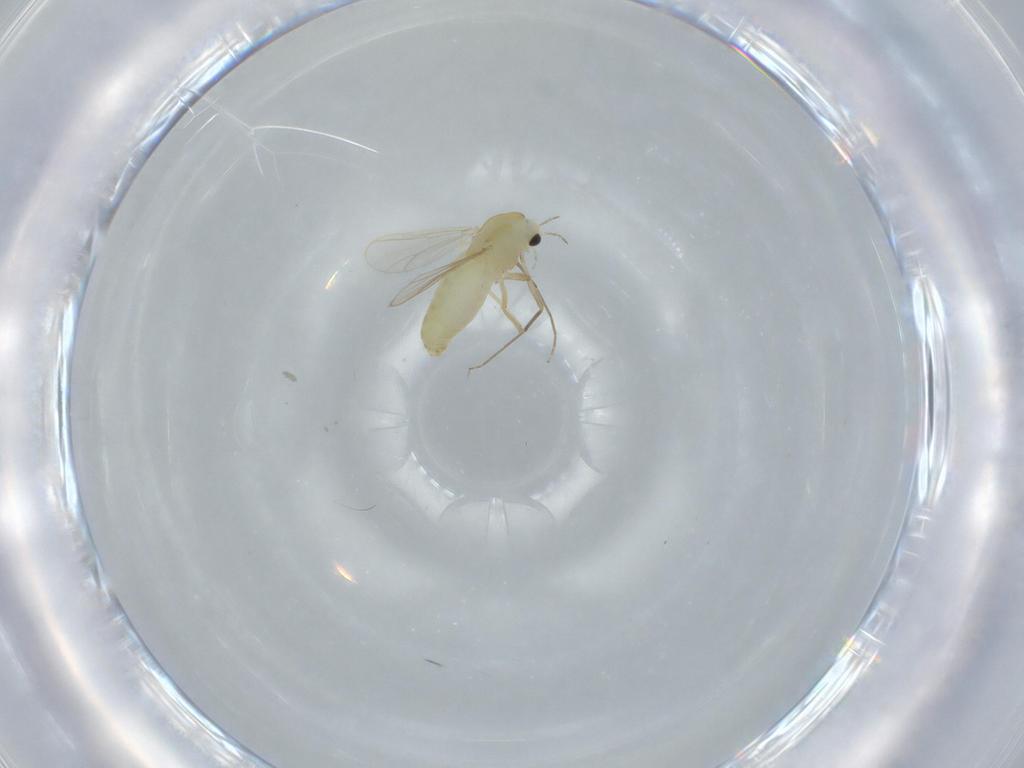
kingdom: Animalia
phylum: Arthropoda
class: Insecta
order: Diptera
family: Chironomidae
